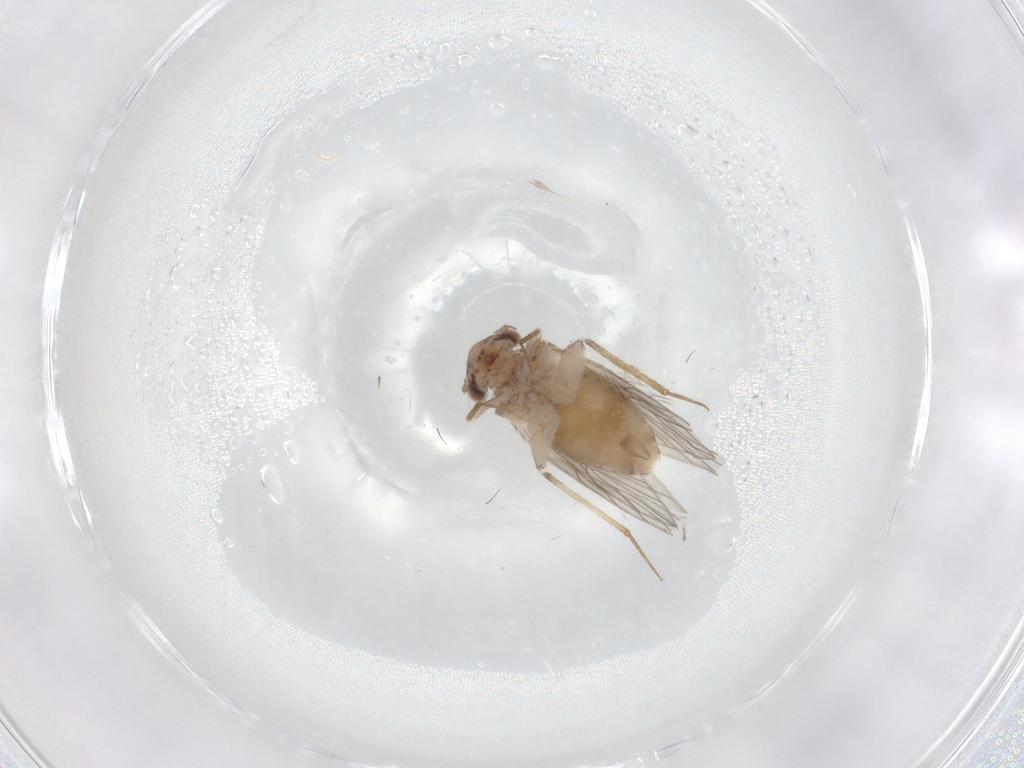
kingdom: Animalia
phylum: Arthropoda
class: Insecta
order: Psocodea
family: Lepidopsocidae
